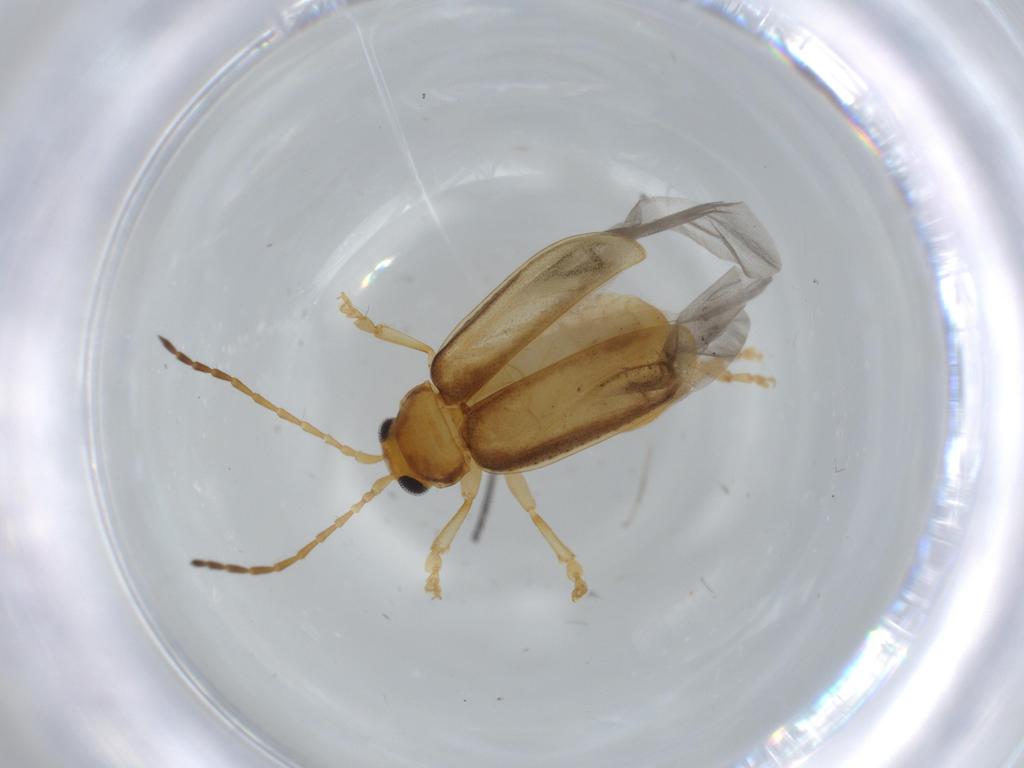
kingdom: Animalia
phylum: Arthropoda
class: Insecta
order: Coleoptera
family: Chrysomelidae
